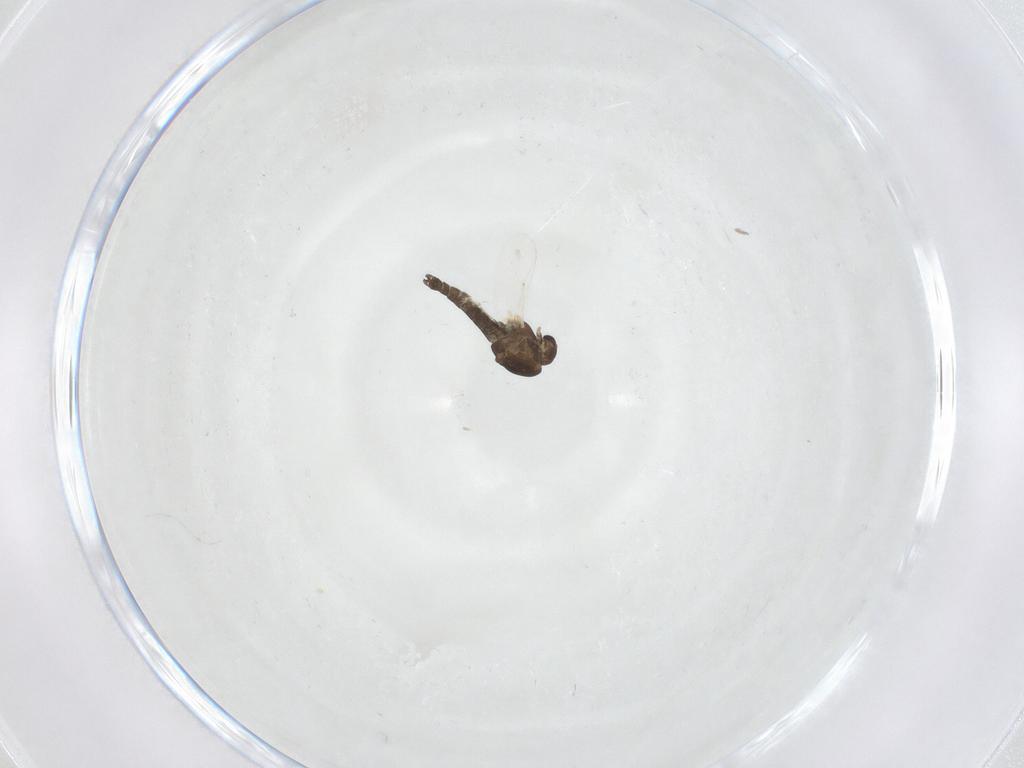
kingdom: Animalia
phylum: Arthropoda
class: Insecta
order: Diptera
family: Chironomidae
